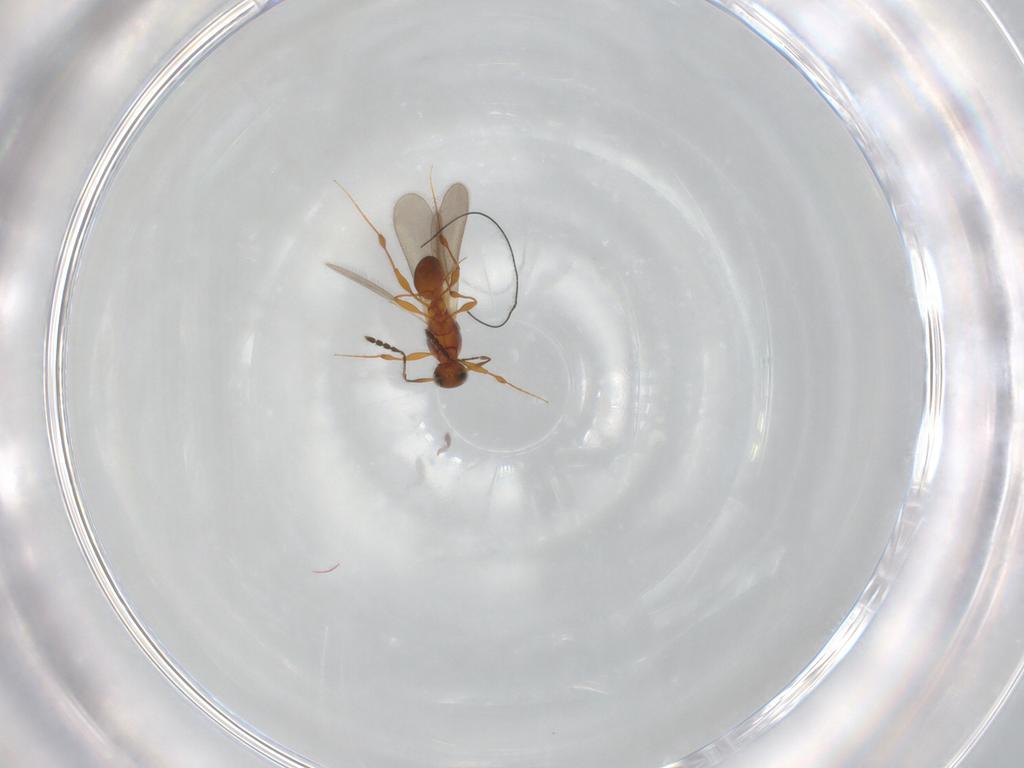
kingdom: Animalia
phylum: Arthropoda
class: Insecta
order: Hymenoptera
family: Platygastridae
